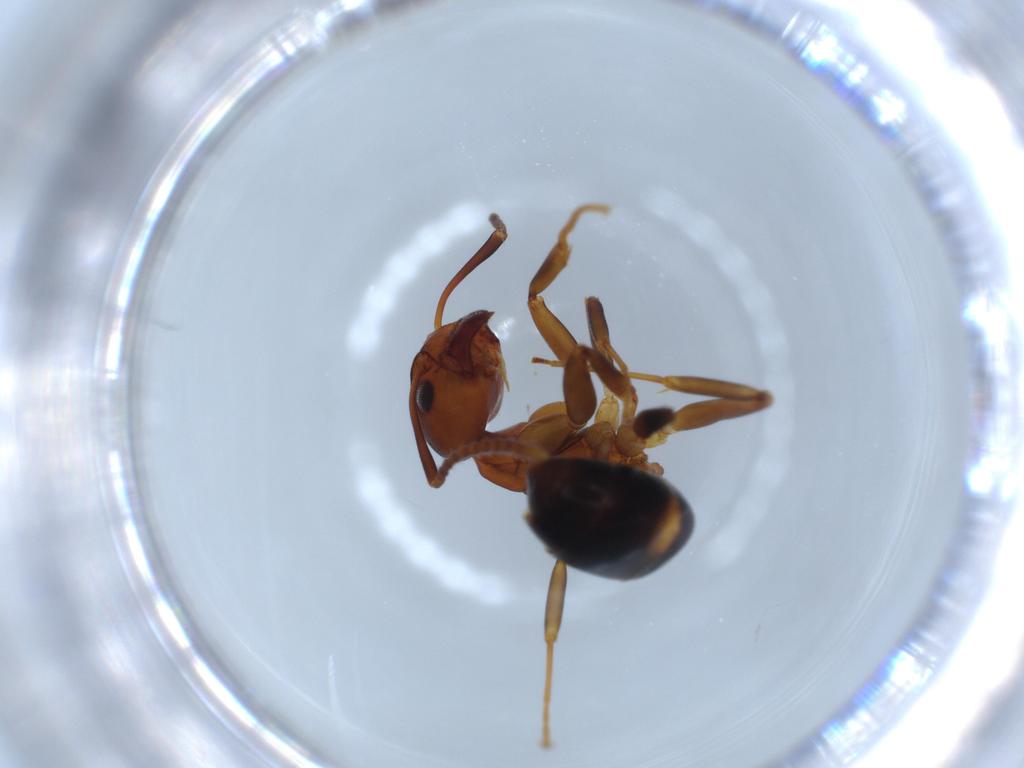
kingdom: Animalia
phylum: Arthropoda
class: Insecta
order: Hymenoptera
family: Formicidae
